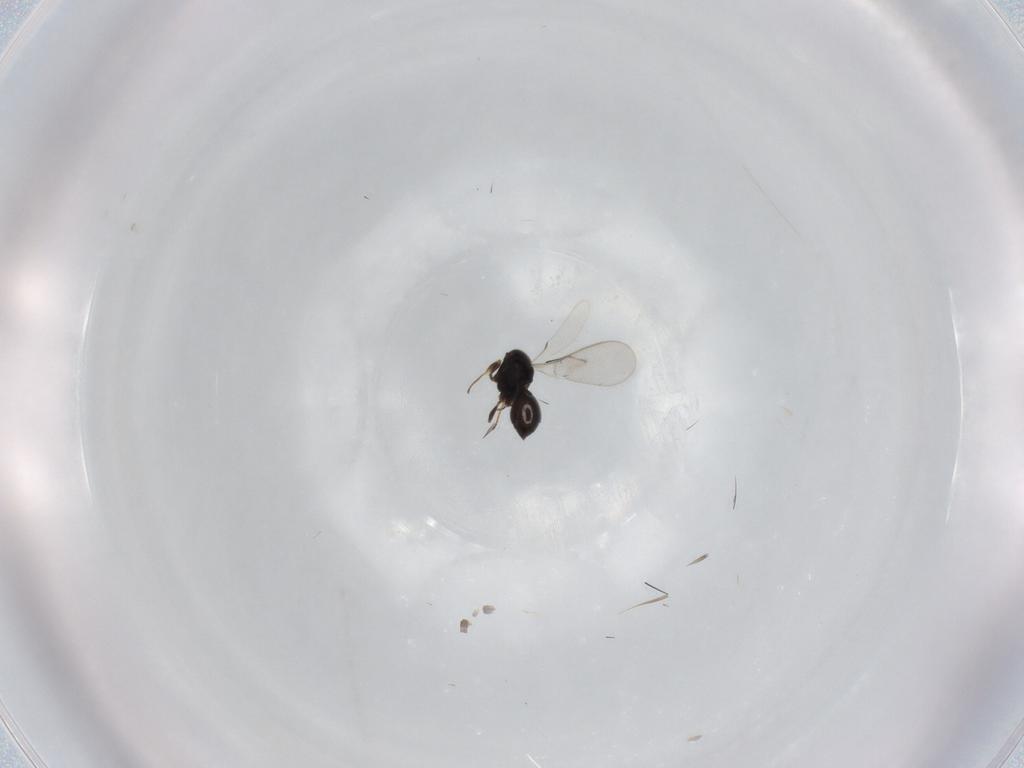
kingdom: Animalia
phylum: Arthropoda
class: Insecta
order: Hymenoptera
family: Scelionidae
